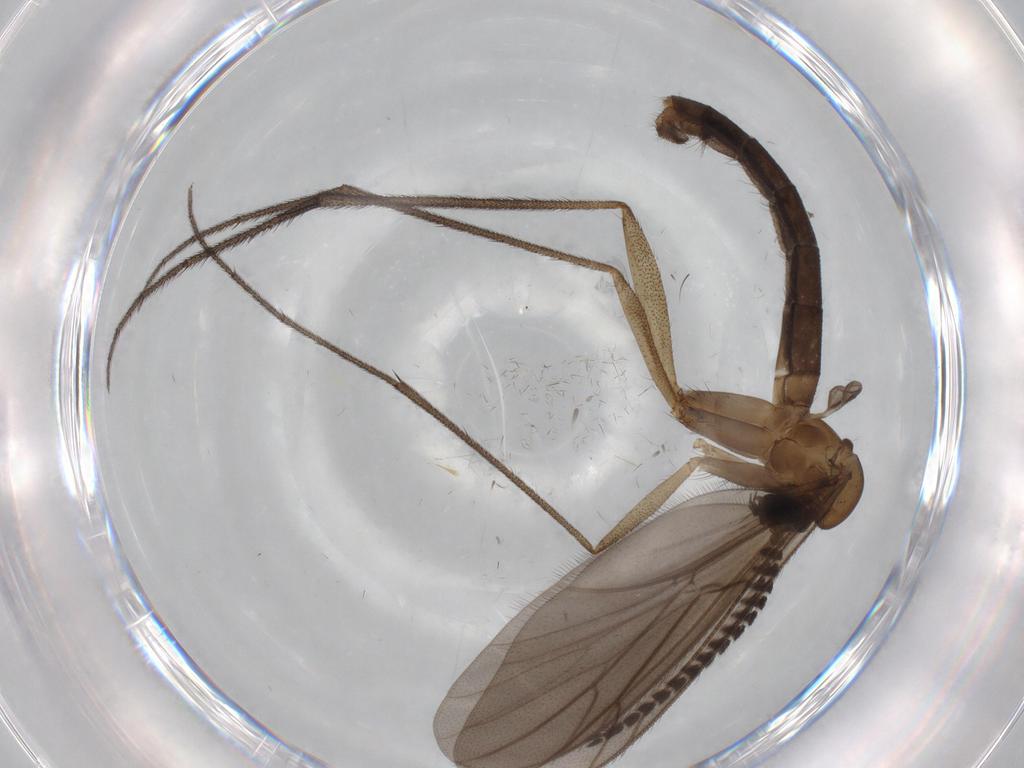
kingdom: Animalia
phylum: Arthropoda
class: Insecta
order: Diptera
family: Ditomyiidae
